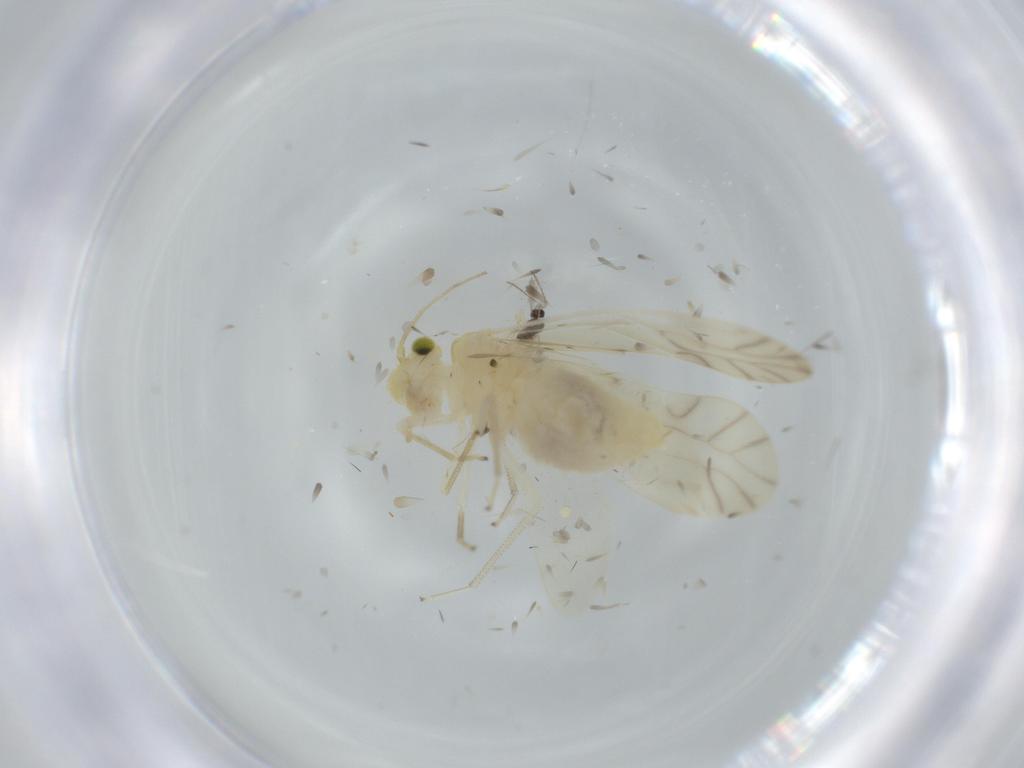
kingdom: Animalia
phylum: Arthropoda
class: Insecta
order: Psocodea
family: Caeciliusidae
